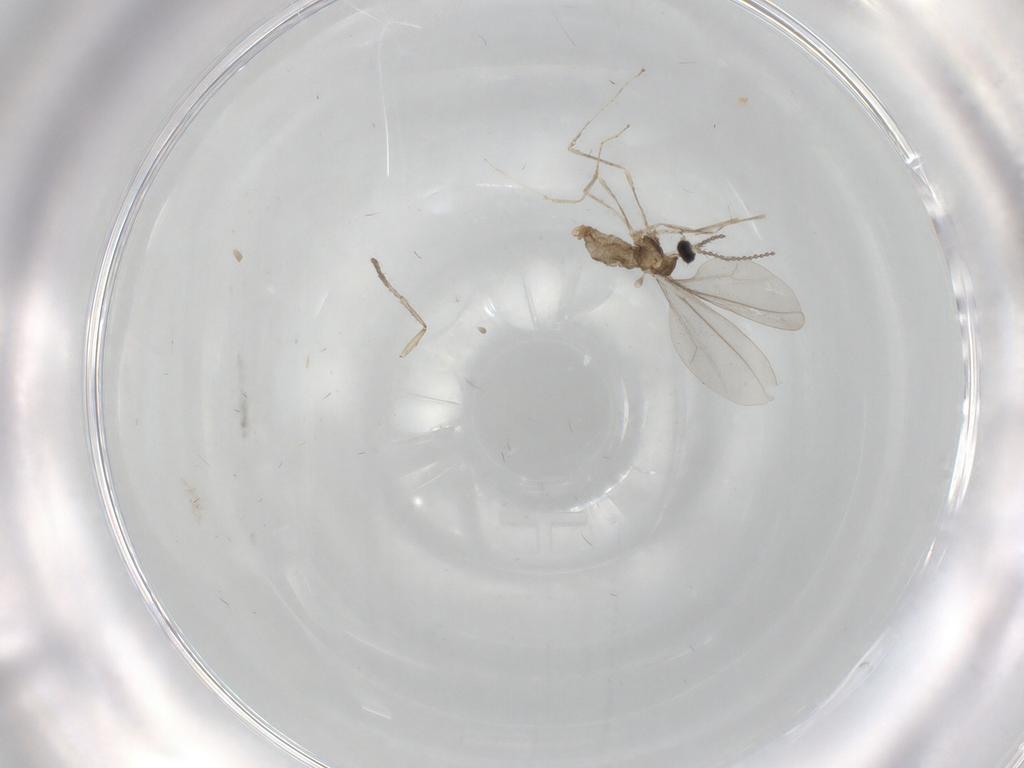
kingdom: Animalia
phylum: Arthropoda
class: Insecta
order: Diptera
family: Cecidomyiidae
